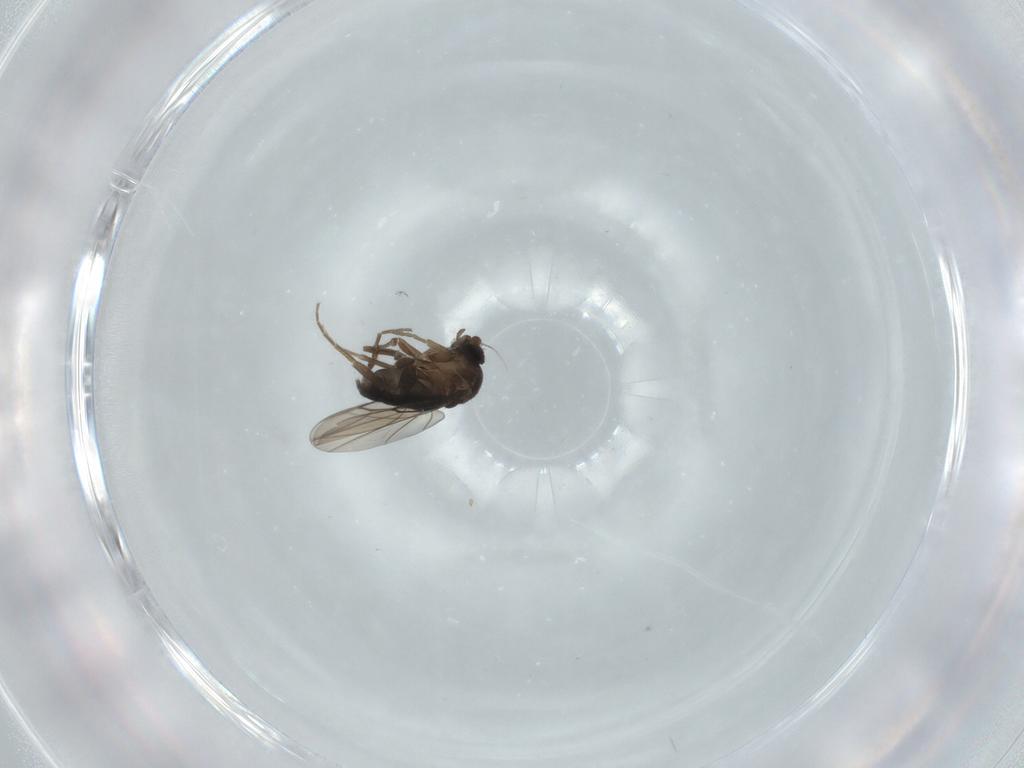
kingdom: Animalia
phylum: Arthropoda
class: Insecta
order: Diptera
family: Phoridae
